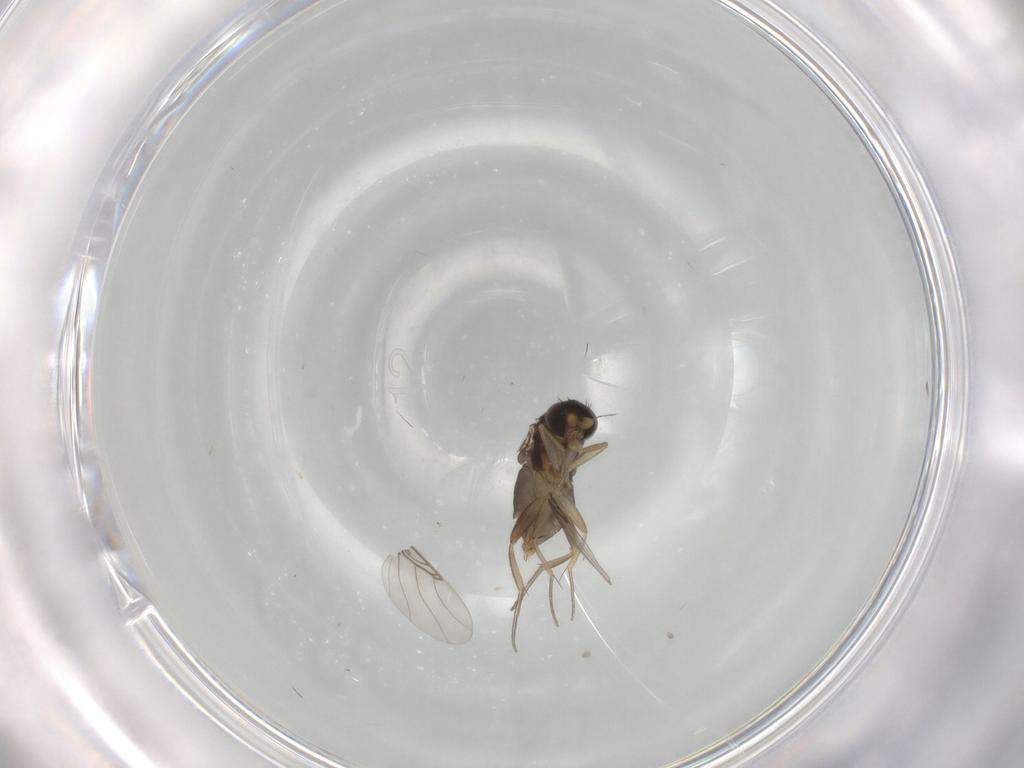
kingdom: Animalia
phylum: Arthropoda
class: Insecta
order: Diptera
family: Phoridae
